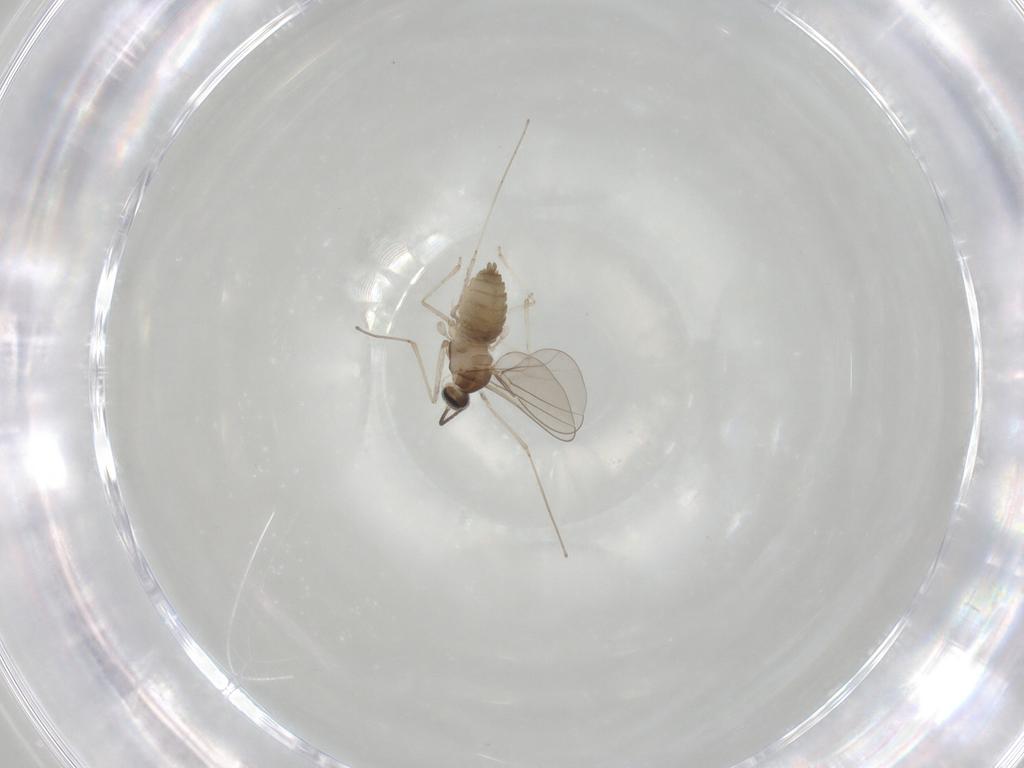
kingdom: Animalia
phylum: Arthropoda
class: Insecta
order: Diptera
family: Cecidomyiidae
